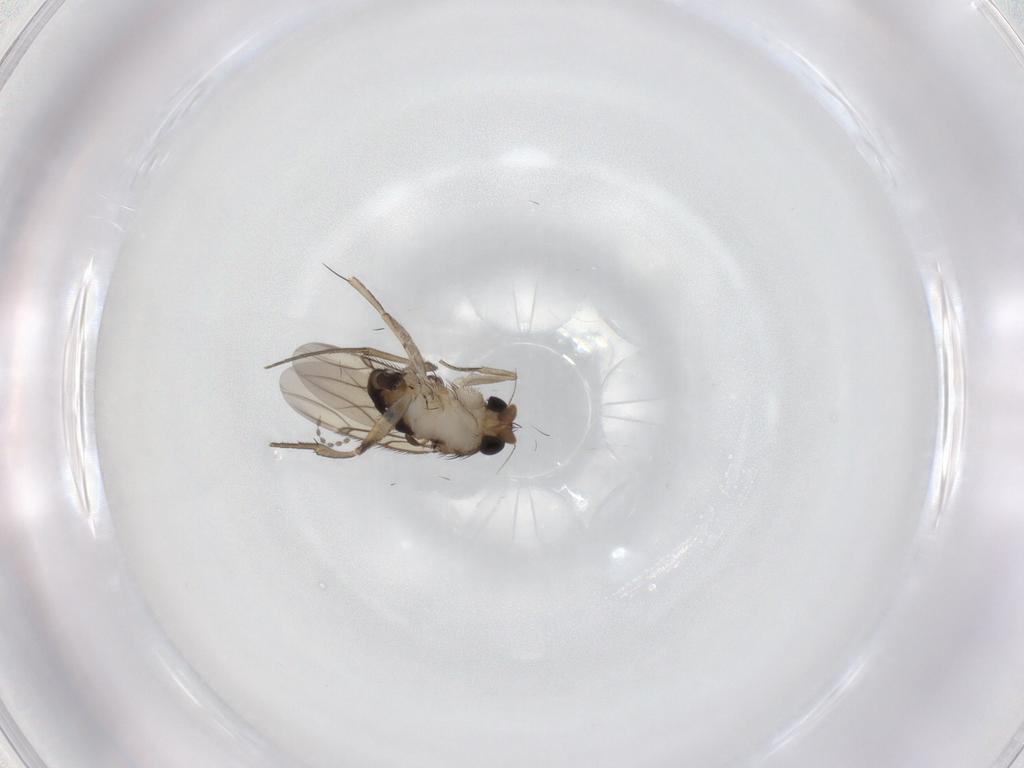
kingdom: Animalia
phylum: Arthropoda
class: Insecta
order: Diptera
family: Phoridae
